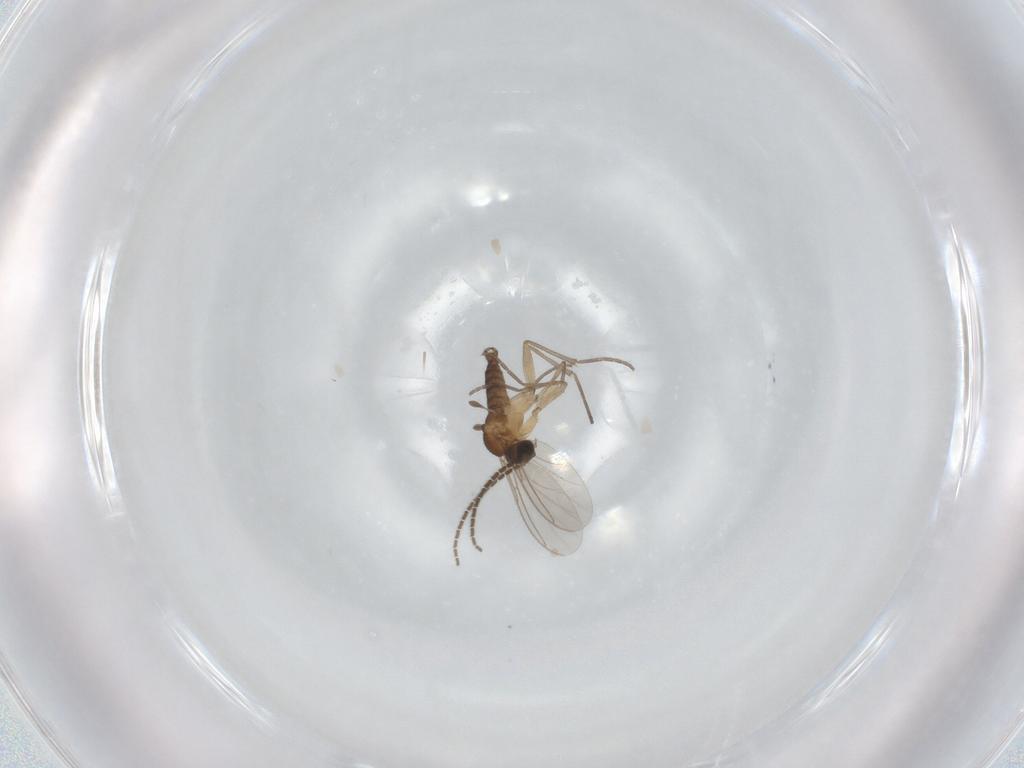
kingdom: Animalia
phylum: Arthropoda
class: Insecta
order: Diptera
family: Sciaridae
